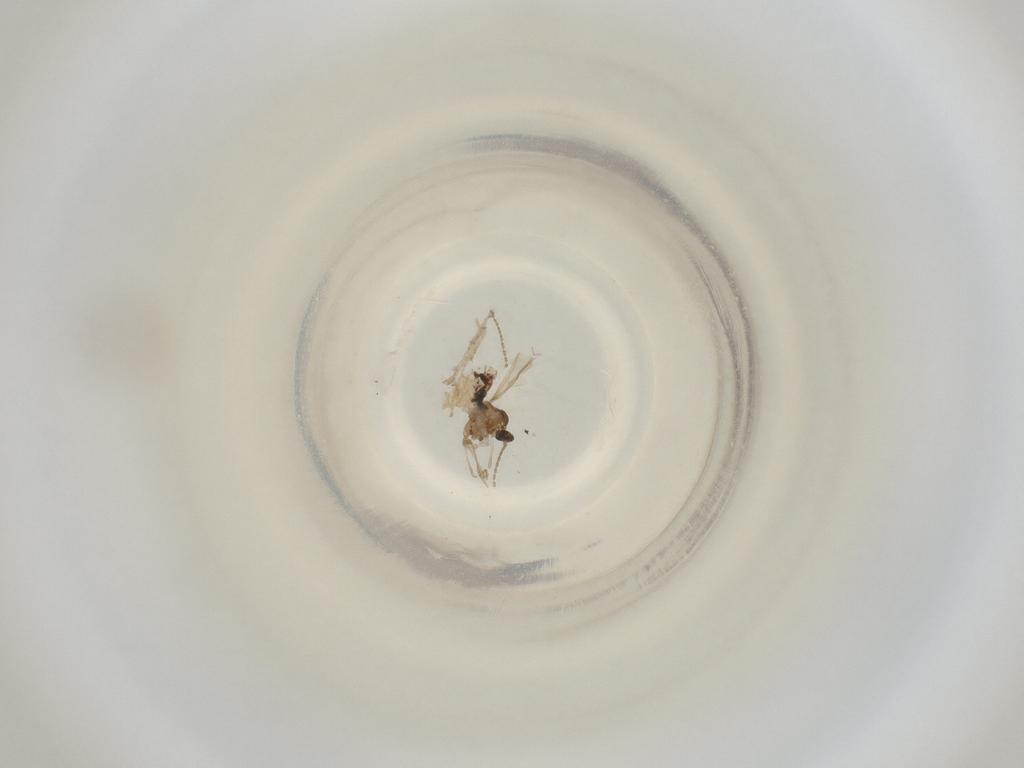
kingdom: Animalia
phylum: Arthropoda
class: Insecta
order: Diptera
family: Cecidomyiidae
